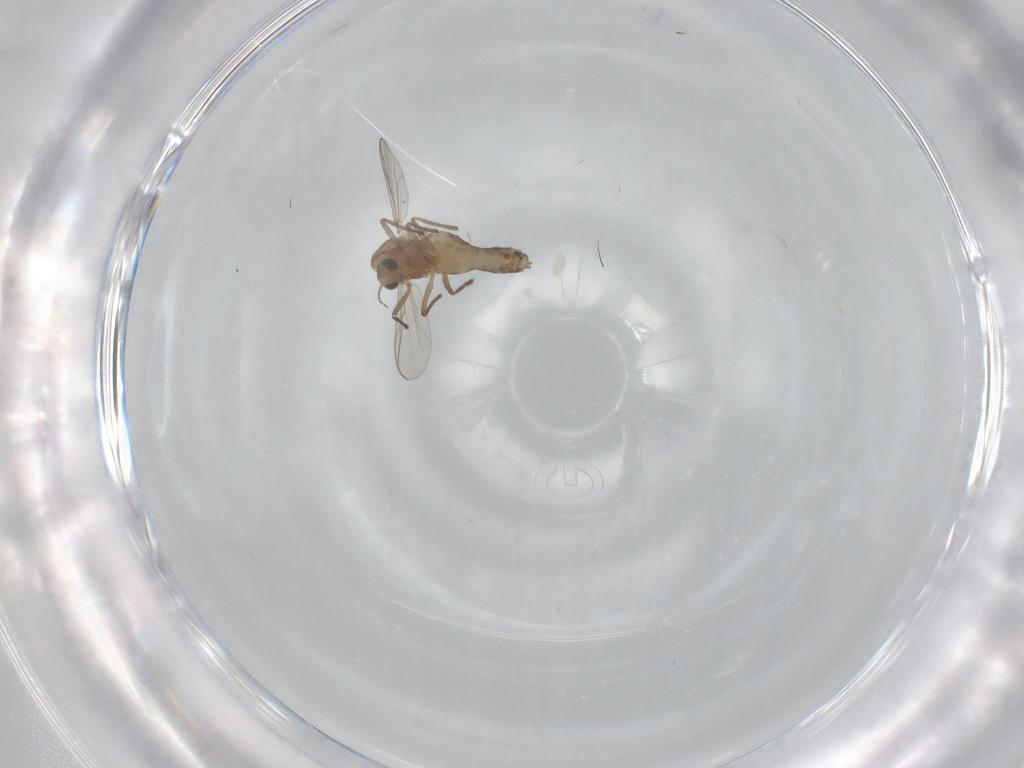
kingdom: Animalia
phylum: Arthropoda
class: Insecta
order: Diptera
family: Chironomidae
